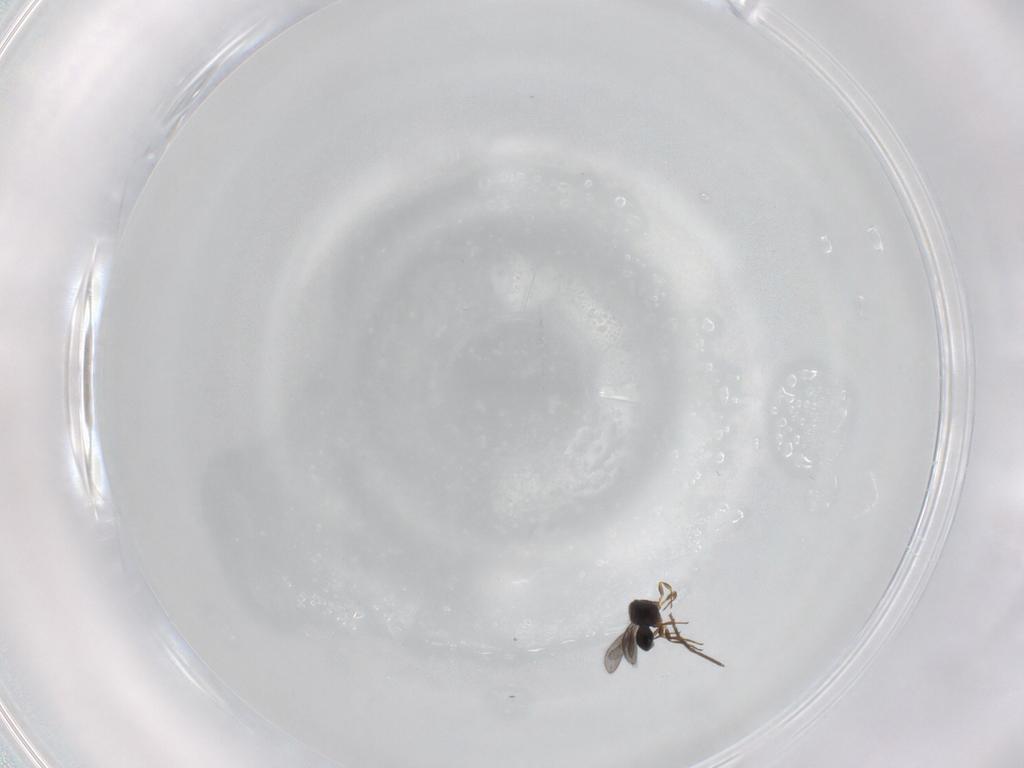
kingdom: Animalia
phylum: Arthropoda
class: Insecta
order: Hymenoptera
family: Scelionidae
